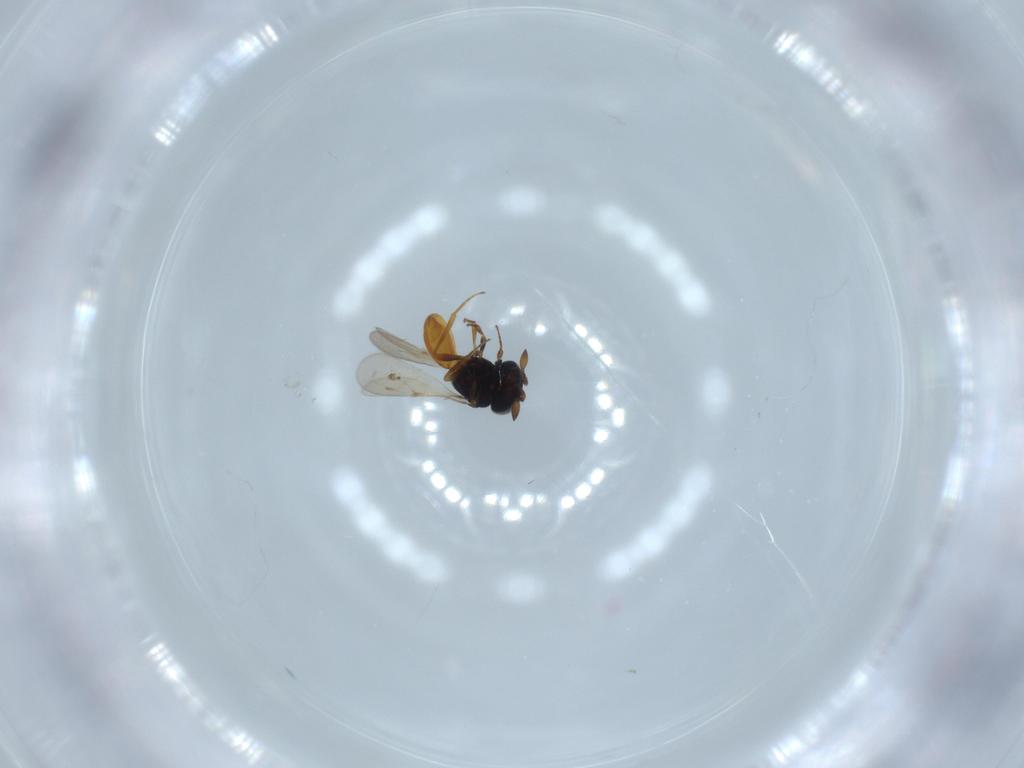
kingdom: Animalia
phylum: Arthropoda
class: Insecta
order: Hymenoptera
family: Scelionidae
